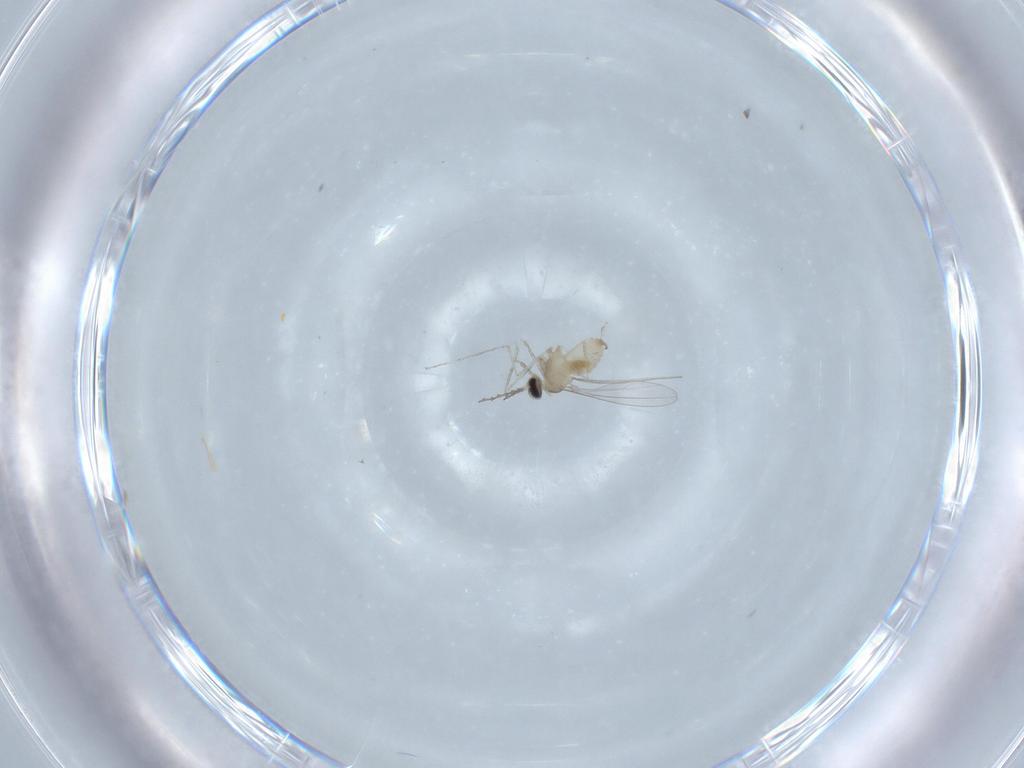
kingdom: Animalia
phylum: Arthropoda
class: Insecta
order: Diptera
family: Cecidomyiidae
